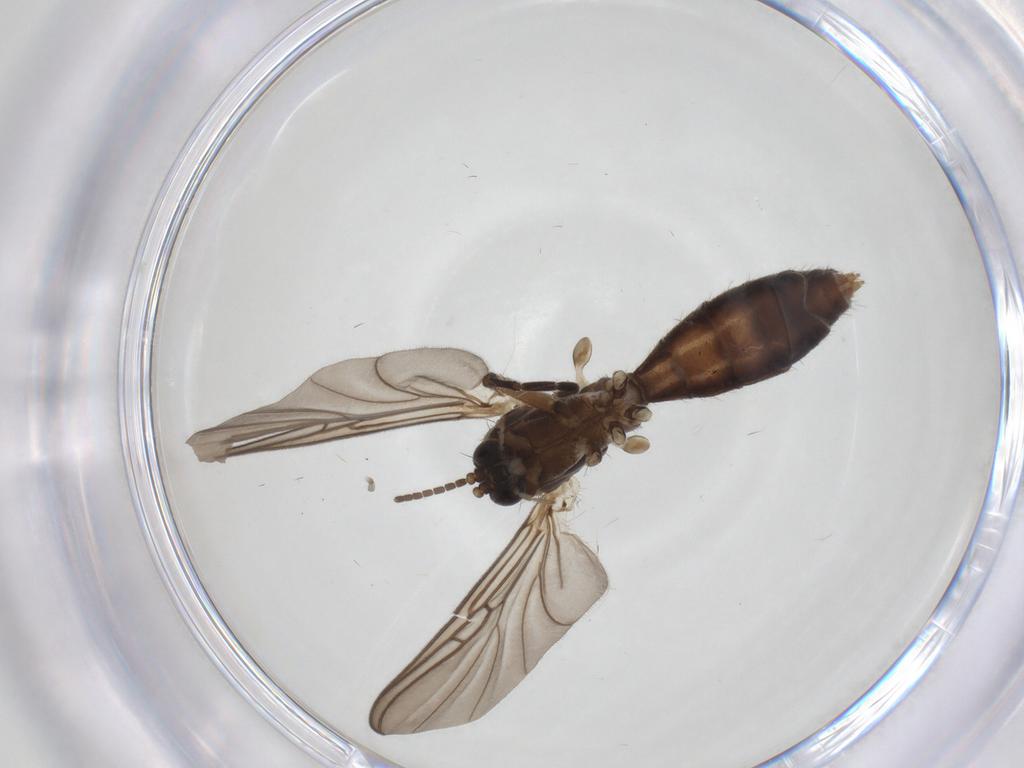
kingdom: Animalia
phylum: Arthropoda
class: Insecta
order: Diptera
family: Mycetophilidae
